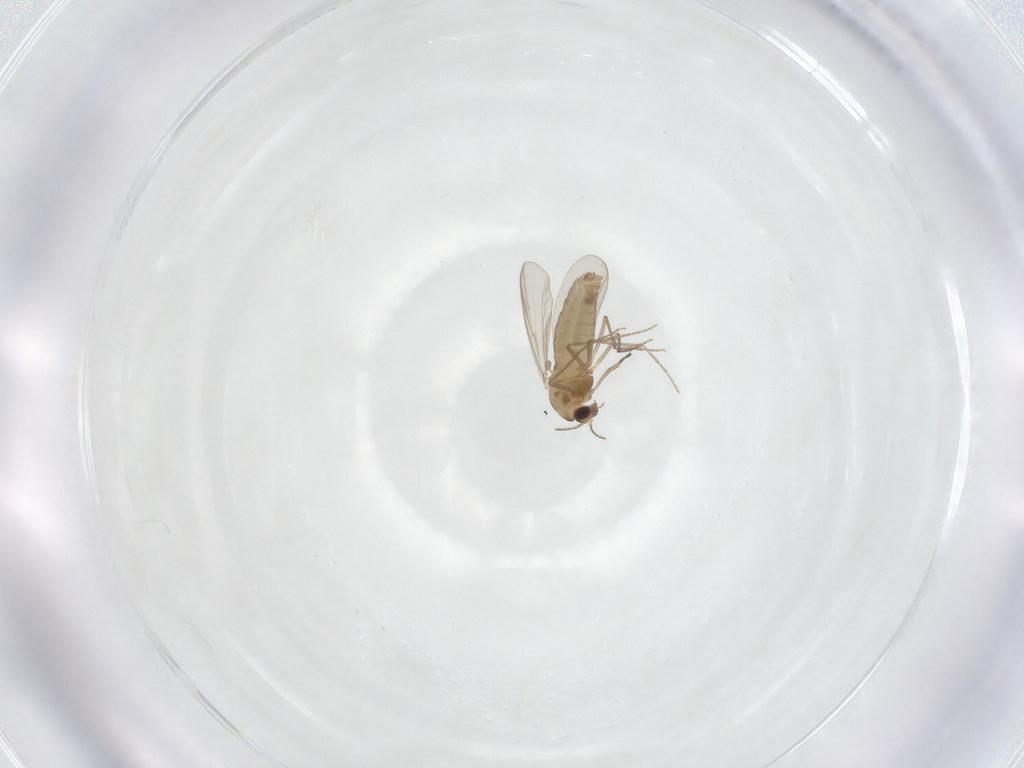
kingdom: Animalia
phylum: Arthropoda
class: Insecta
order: Diptera
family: Chironomidae
